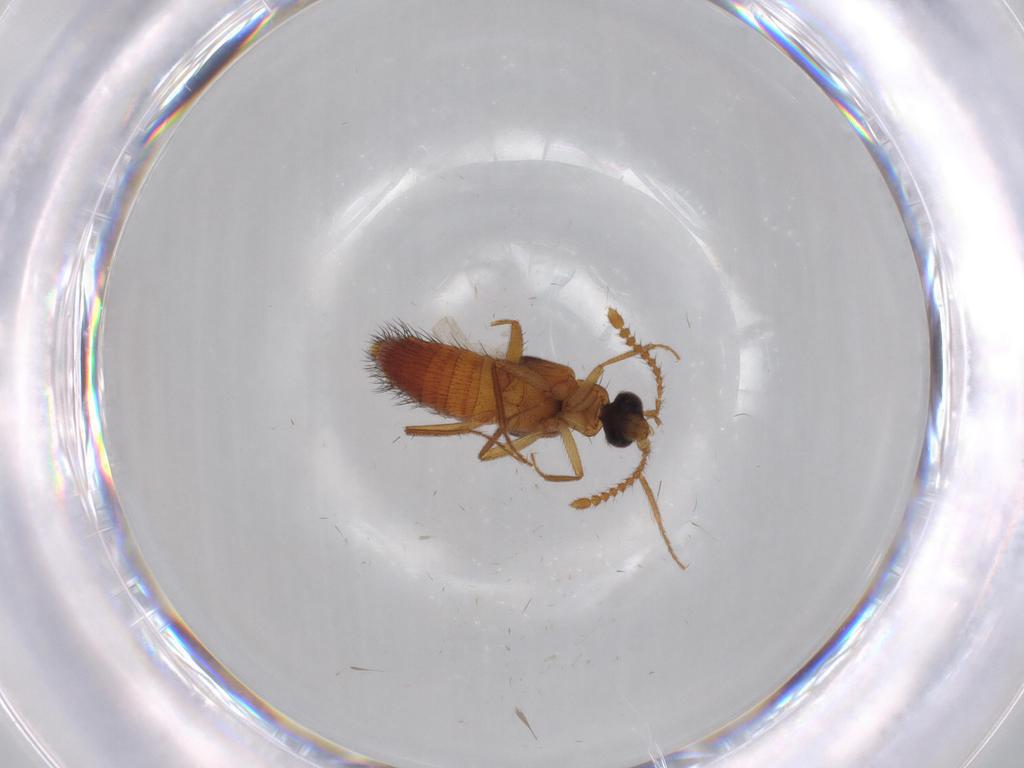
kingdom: Animalia
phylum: Arthropoda
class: Insecta
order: Coleoptera
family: Staphylinidae
